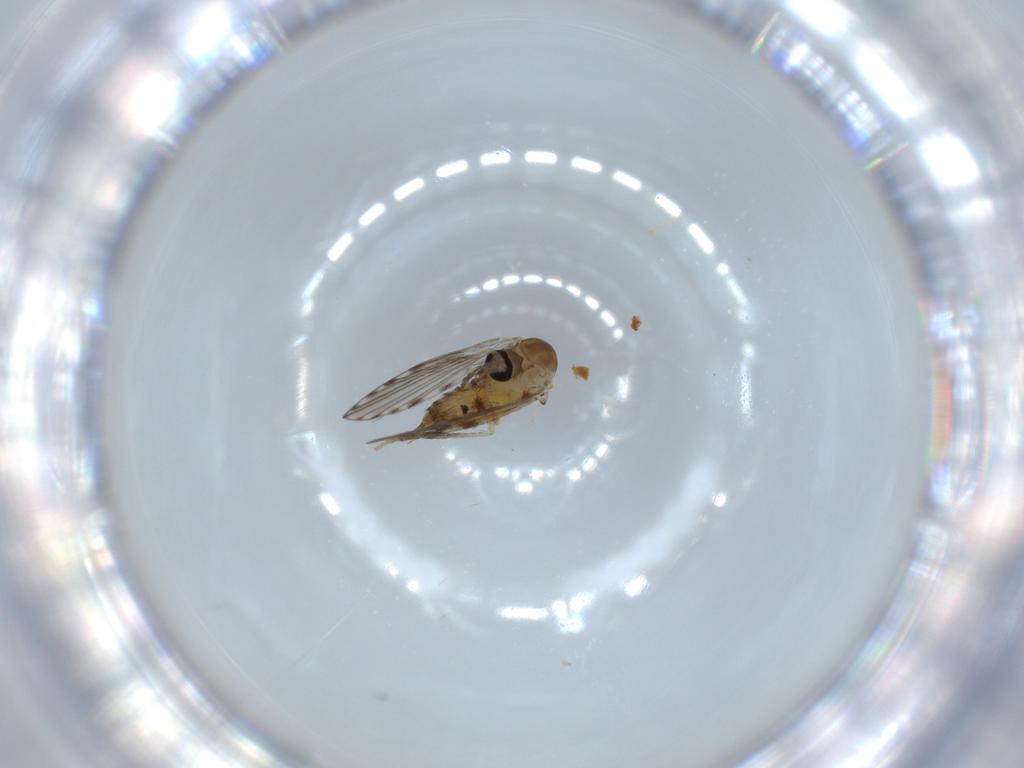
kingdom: Animalia
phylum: Arthropoda
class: Insecta
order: Diptera
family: Psychodidae
